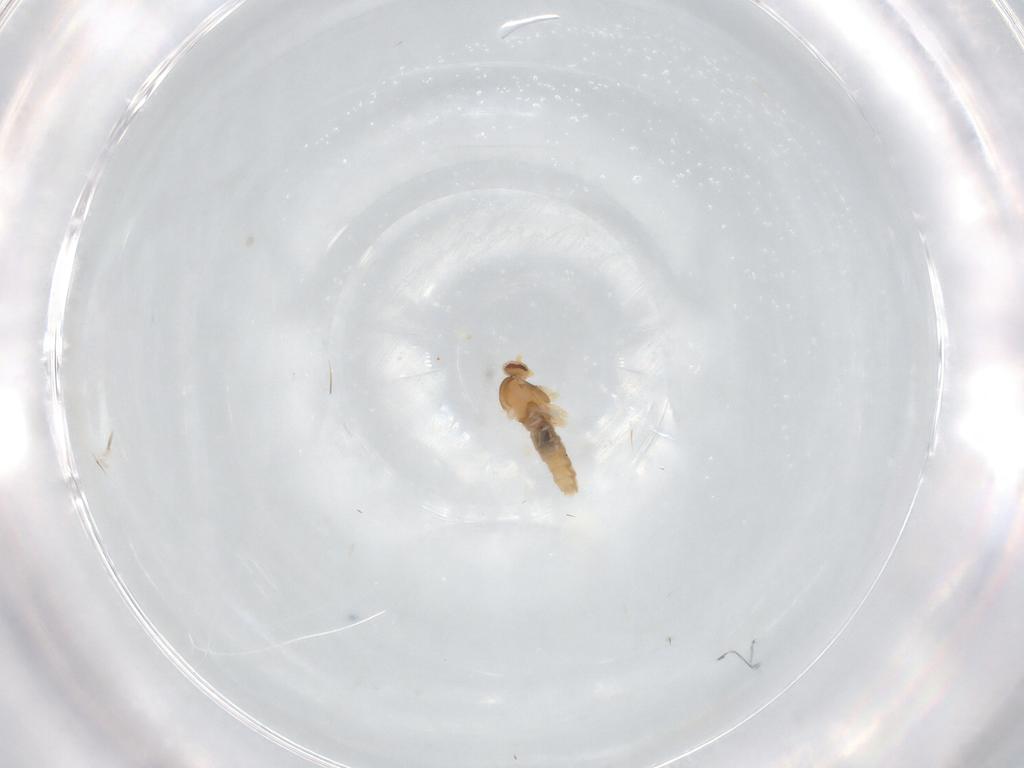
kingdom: Animalia
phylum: Arthropoda
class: Insecta
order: Diptera
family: Cecidomyiidae
